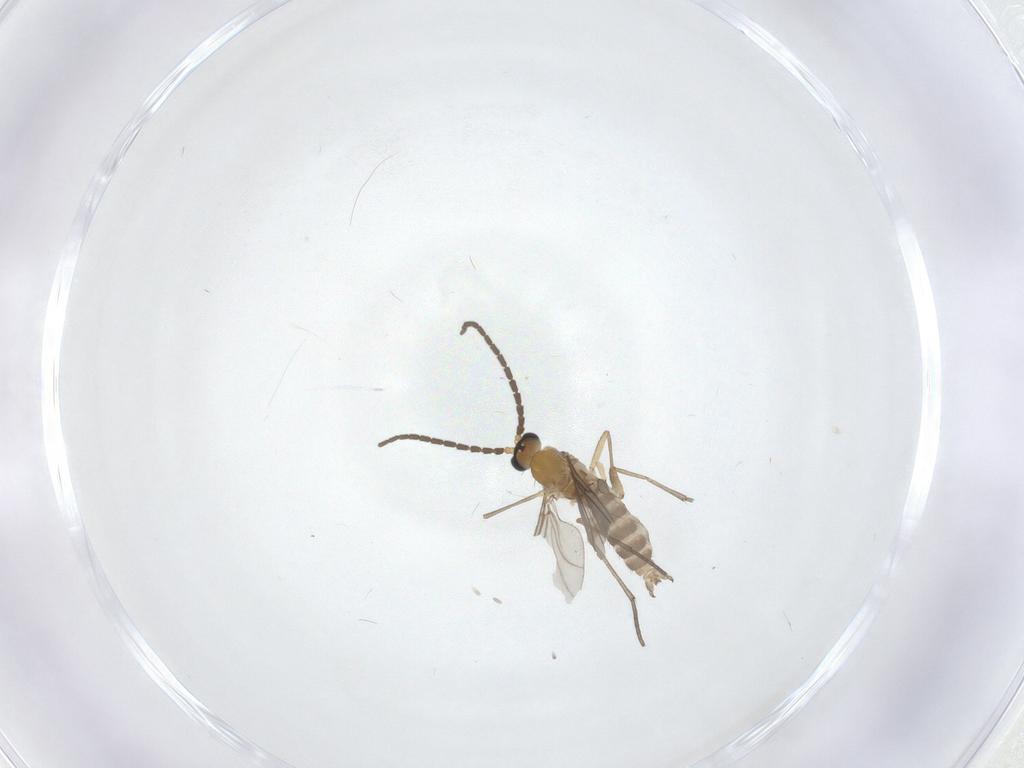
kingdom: Animalia
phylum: Arthropoda
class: Insecta
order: Diptera
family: Sciaridae
